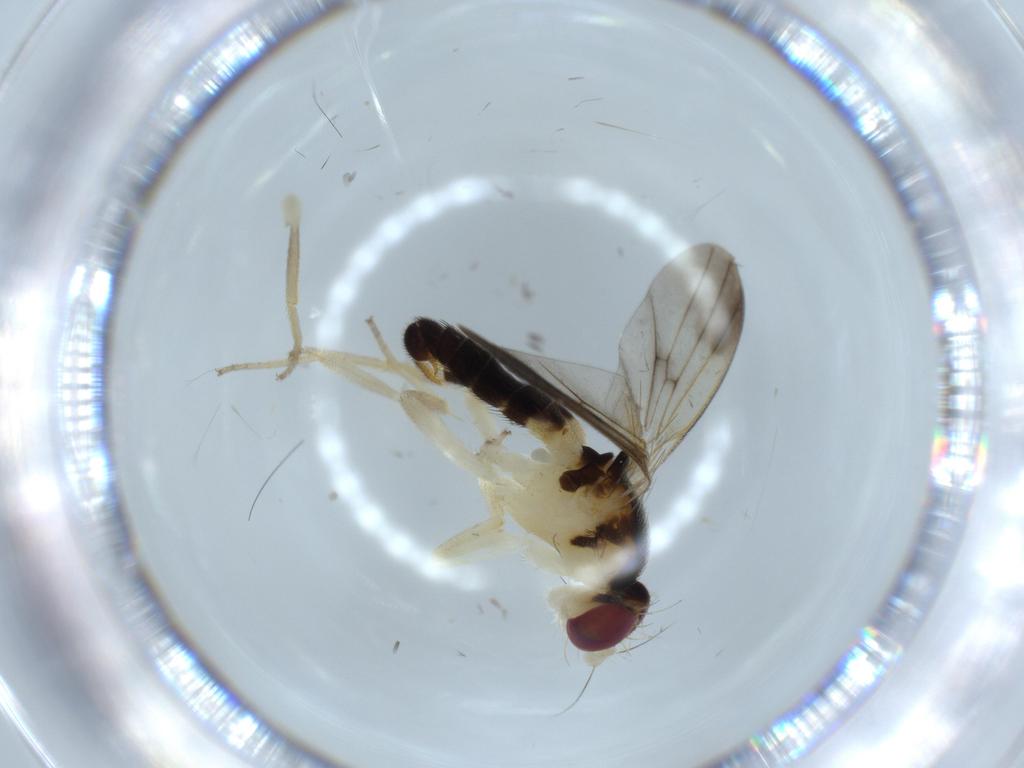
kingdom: Animalia
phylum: Arthropoda
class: Insecta
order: Diptera
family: Clusiidae
